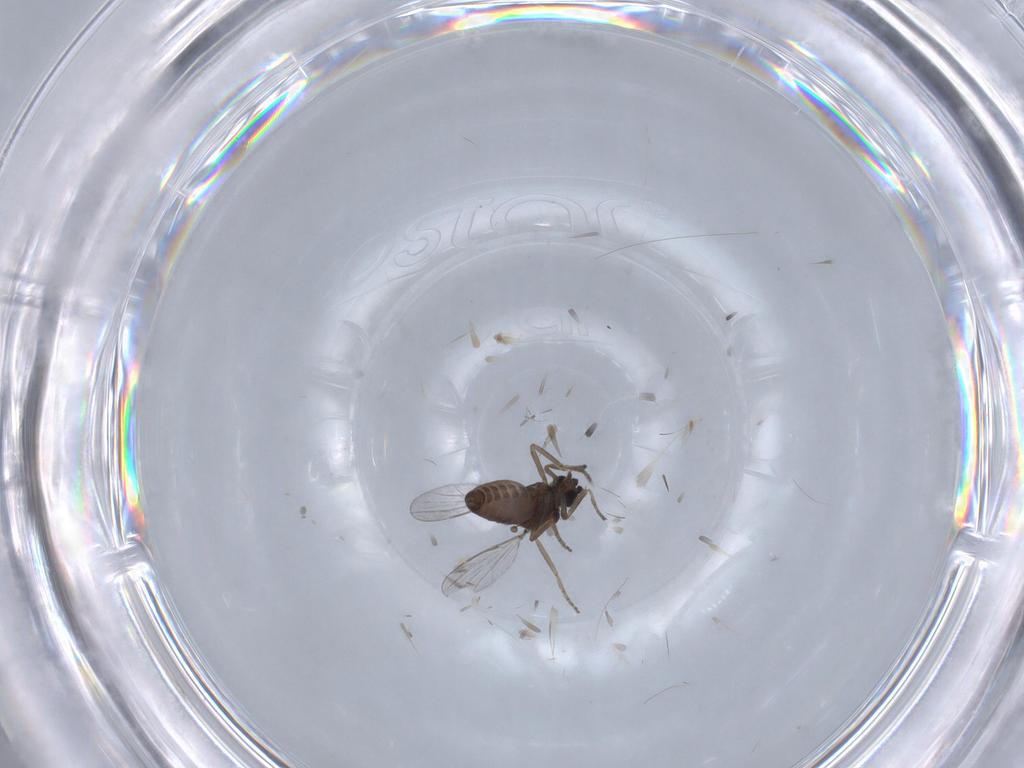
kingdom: Animalia
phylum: Arthropoda
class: Insecta
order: Diptera
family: Ceratopogonidae
